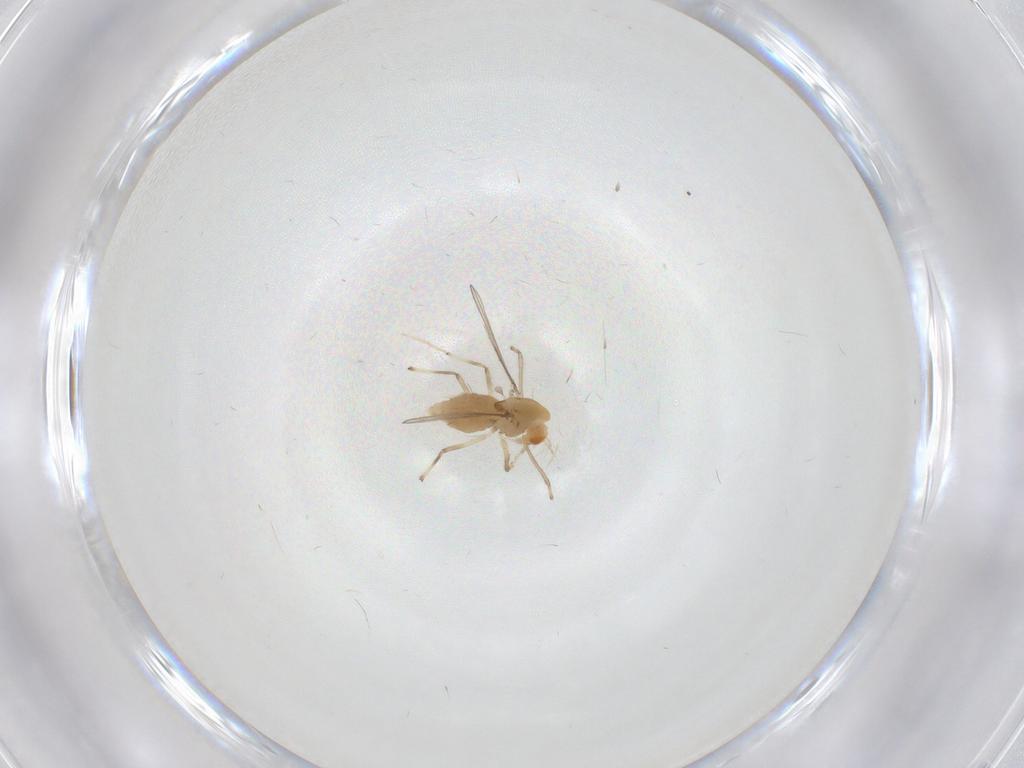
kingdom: Animalia
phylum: Arthropoda
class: Insecta
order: Diptera
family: Chironomidae
